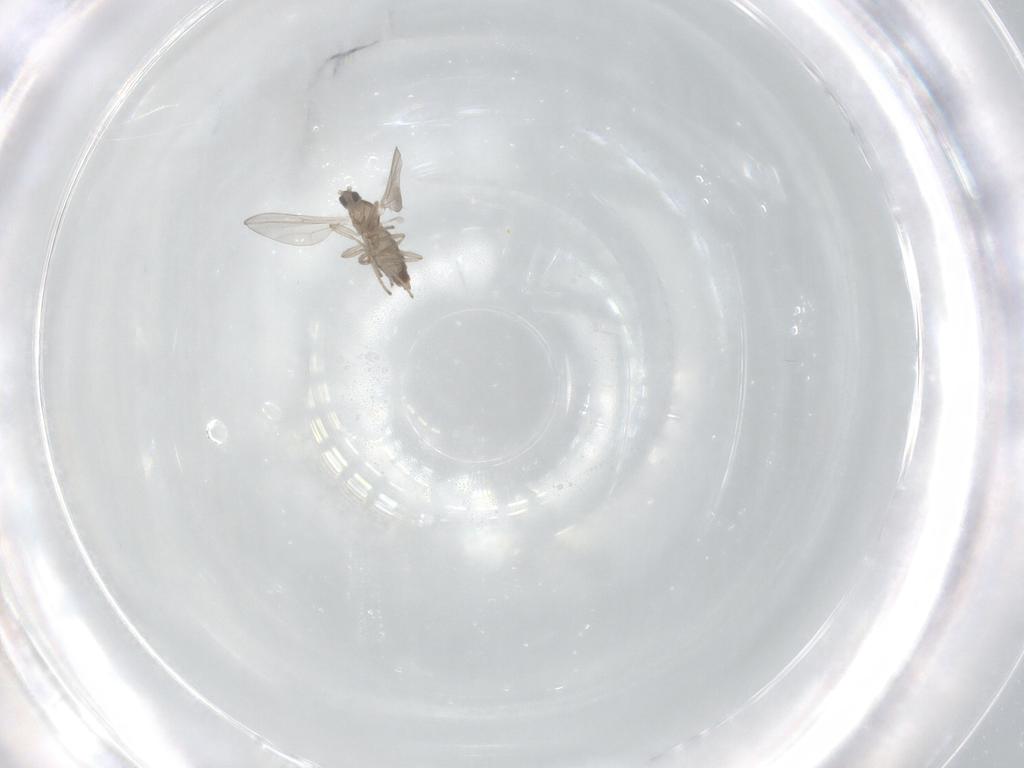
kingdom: Animalia
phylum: Arthropoda
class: Insecta
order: Diptera
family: Cecidomyiidae
